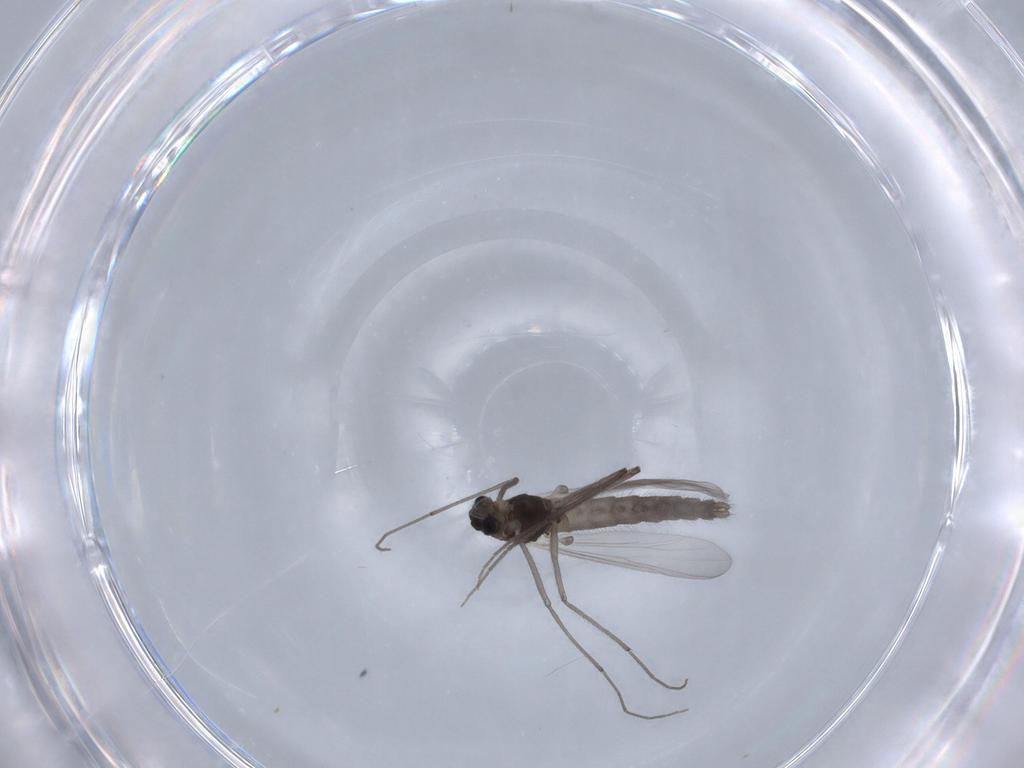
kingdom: Animalia
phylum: Arthropoda
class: Insecta
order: Diptera
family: Chironomidae
